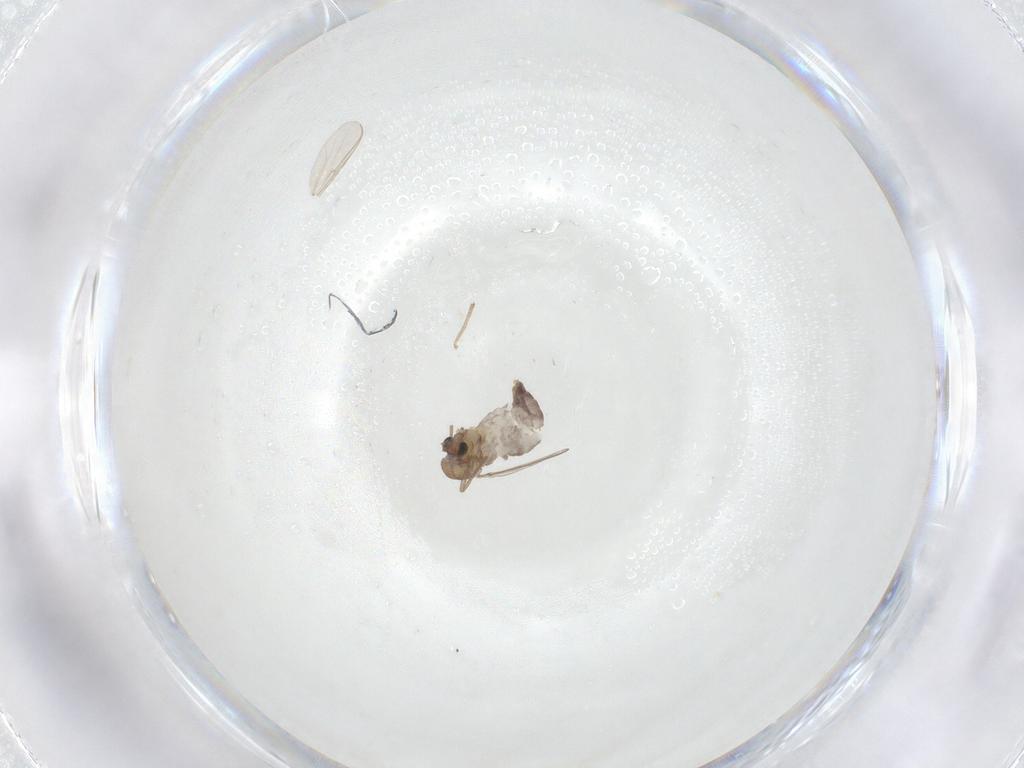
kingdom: Animalia
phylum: Arthropoda
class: Insecta
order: Diptera
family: Chironomidae
